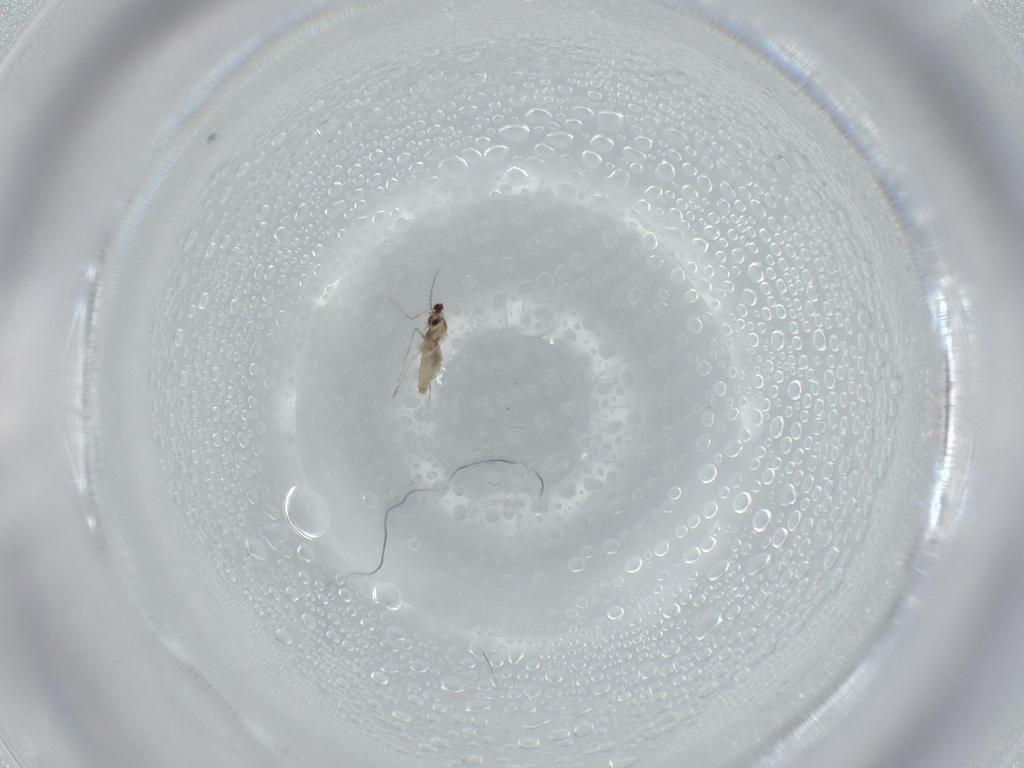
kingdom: Animalia
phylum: Arthropoda
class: Insecta
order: Diptera
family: Cecidomyiidae
